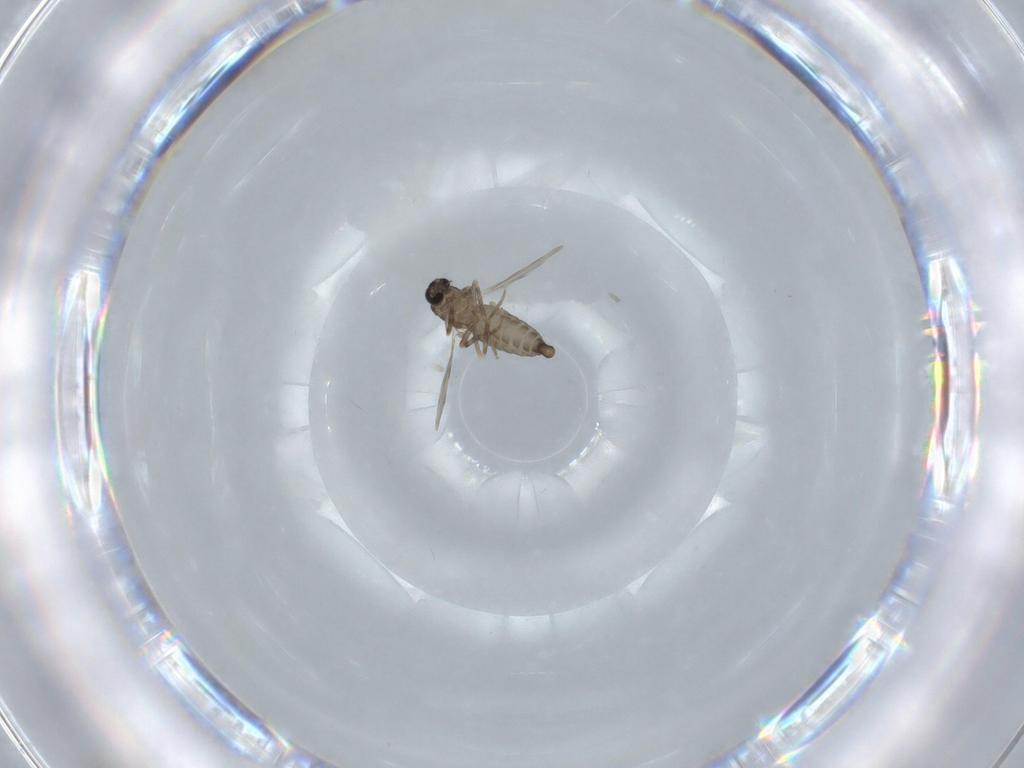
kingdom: Animalia
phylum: Arthropoda
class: Insecta
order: Diptera
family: Ceratopogonidae
